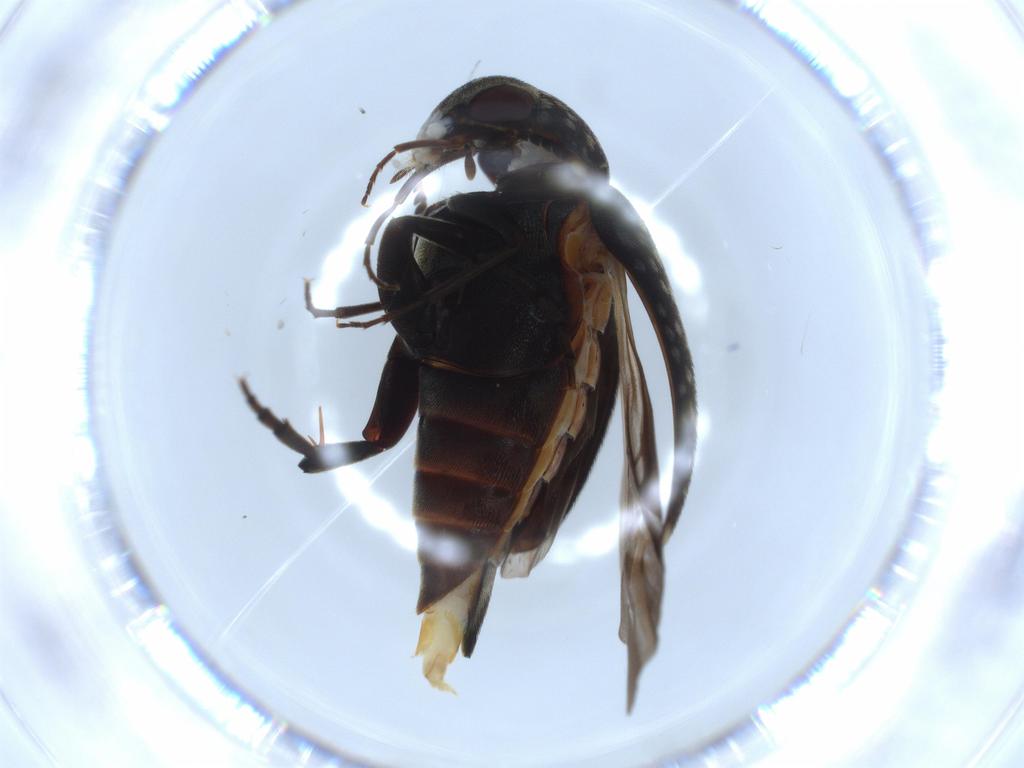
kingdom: Animalia
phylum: Arthropoda
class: Insecta
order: Coleoptera
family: Mordellidae
